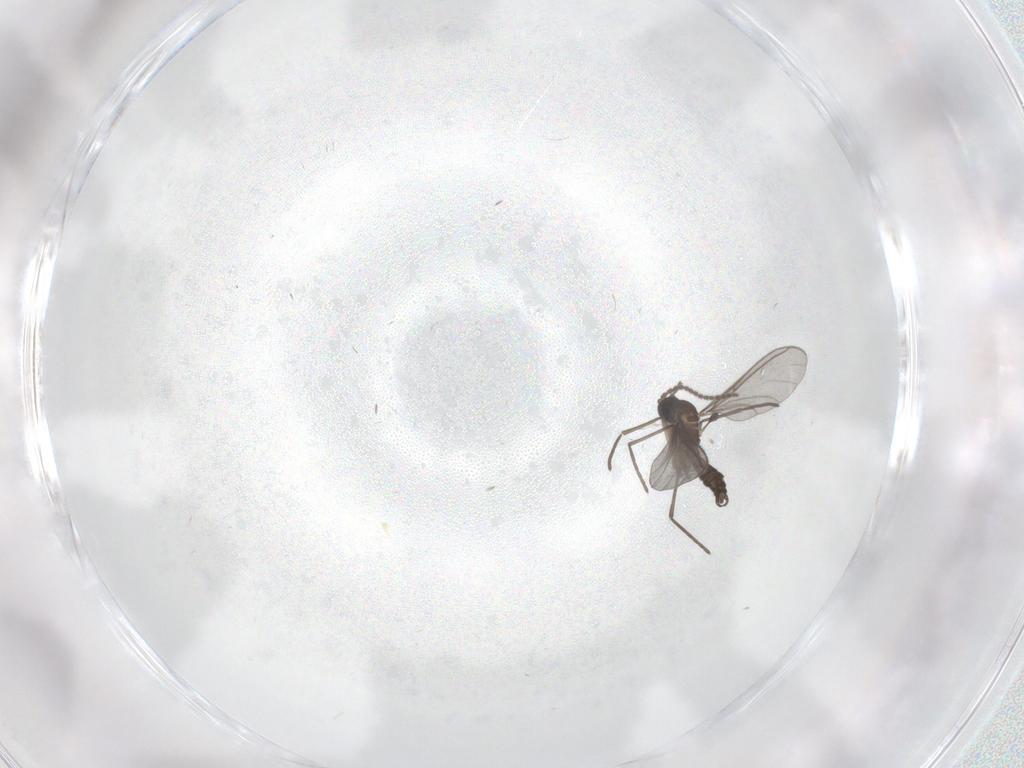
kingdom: Animalia
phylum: Arthropoda
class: Insecta
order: Diptera
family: Cecidomyiidae
